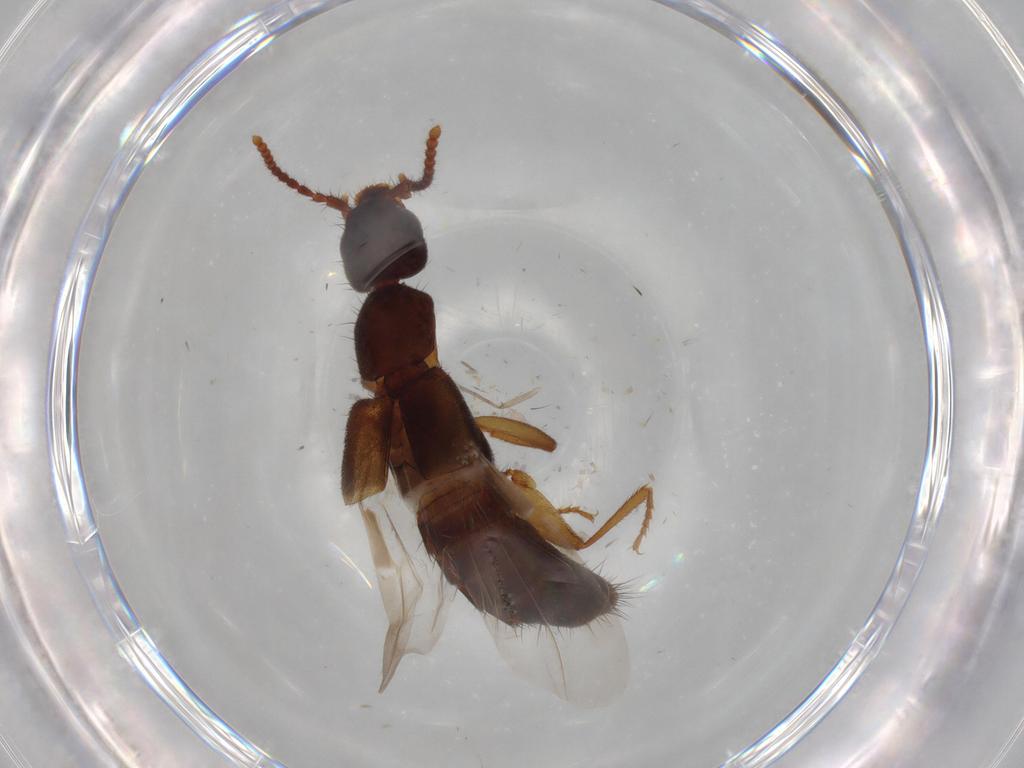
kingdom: Animalia
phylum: Arthropoda
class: Insecta
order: Coleoptera
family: Staphylinidae
